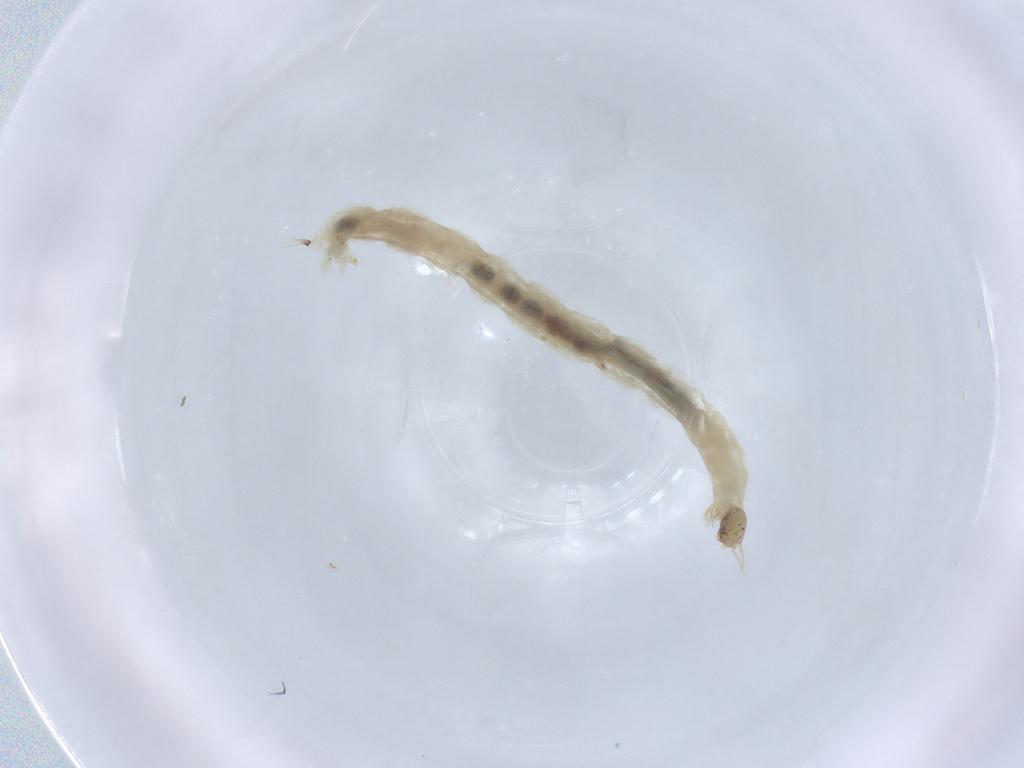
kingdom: Animalia
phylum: Arthropoda
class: Insecta
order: Diptera
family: Chironomidae
